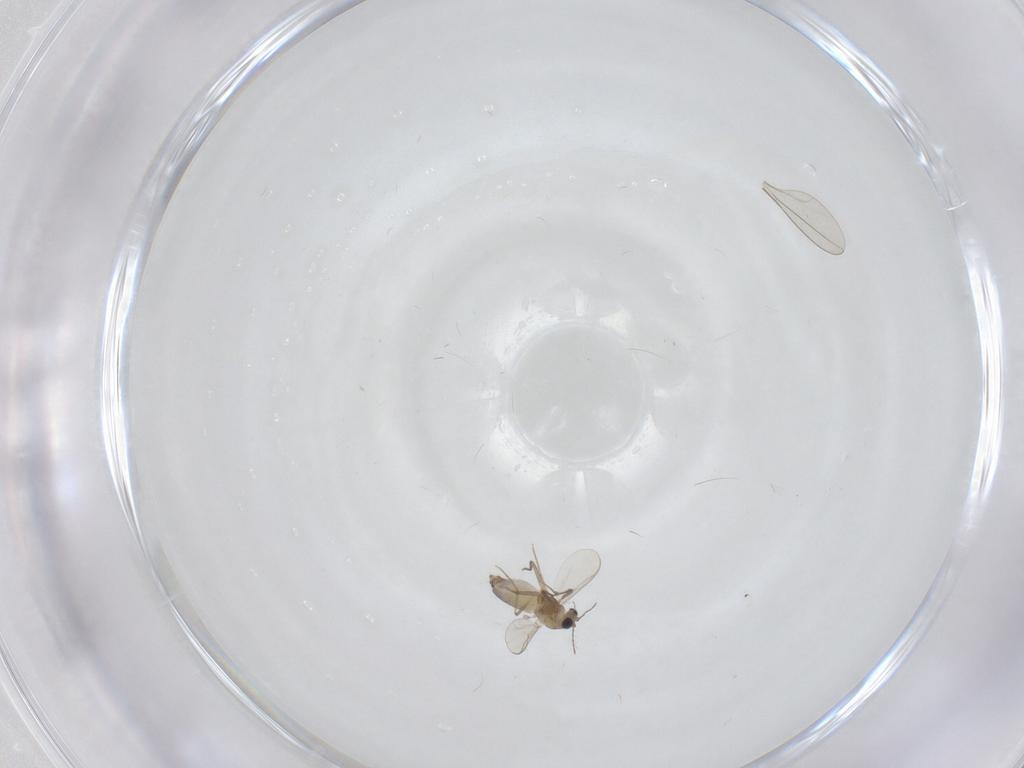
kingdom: Animalia
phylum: Arthropoda
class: Insecta
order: Diptera
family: Chironomidae
